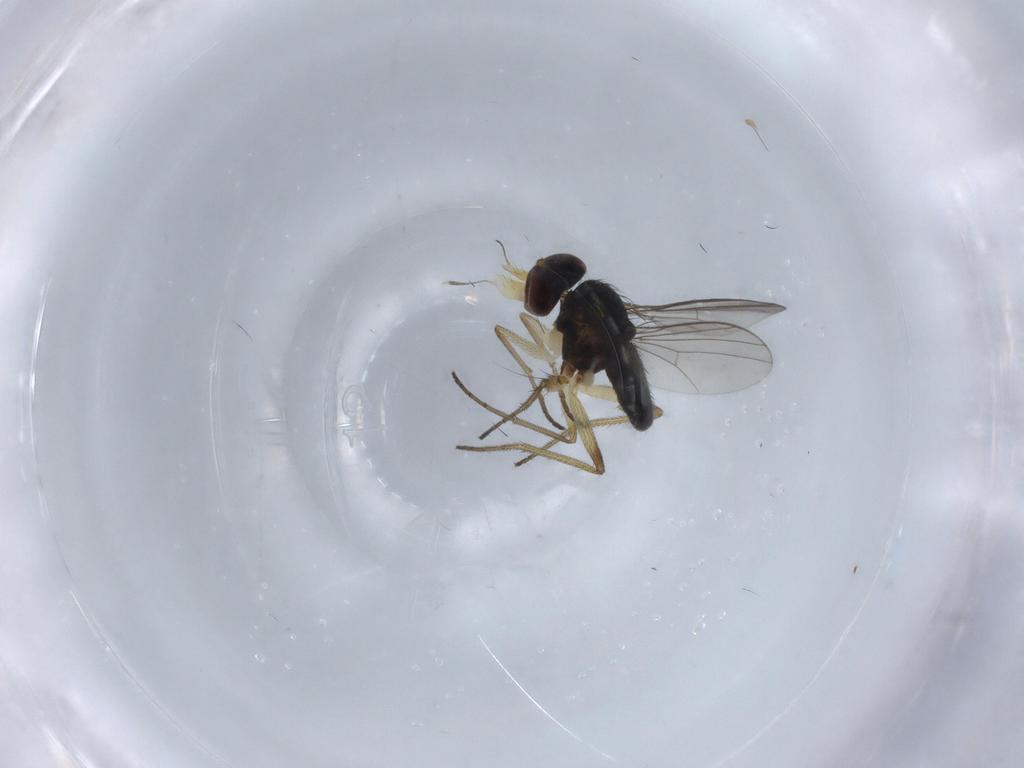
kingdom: Animalia
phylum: Arthropoda
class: Insecta
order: Diptera
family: Dolichopodidae
